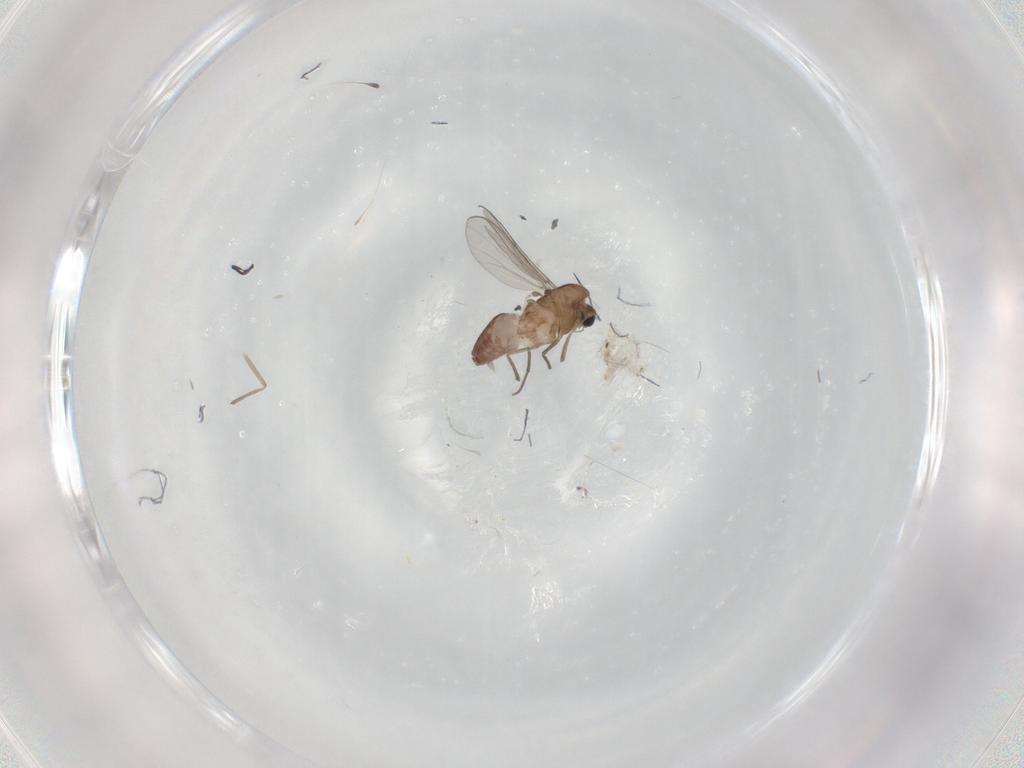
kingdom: Animalia
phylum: Arthropoda
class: Insecta
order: Diptera
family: Chironomidae
